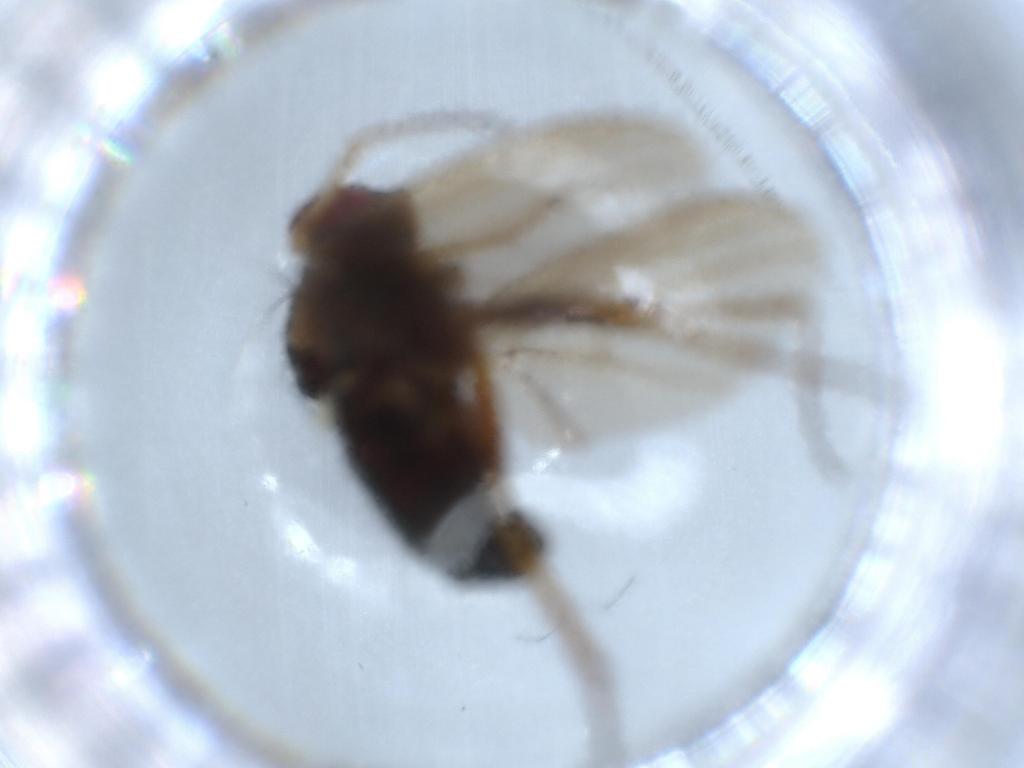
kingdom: Animalia
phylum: Arthropoda
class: Insecta
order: Diptera
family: Dolichopodidae
